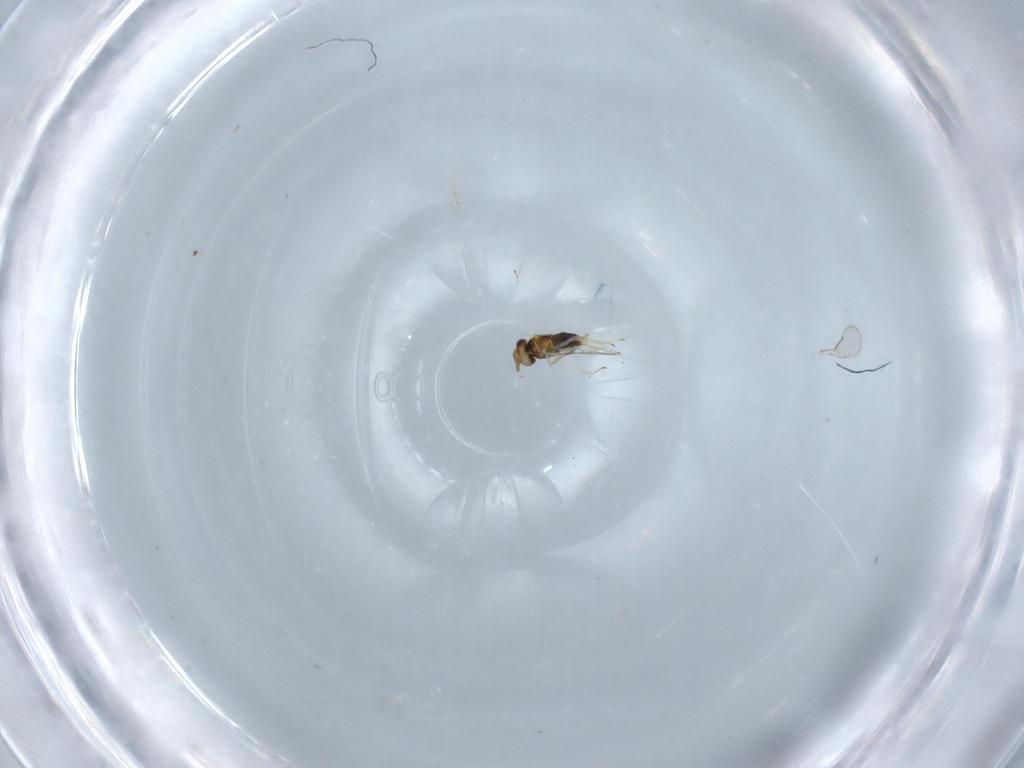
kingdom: Animalia
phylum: Arthropoda
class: Insecta
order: Hymenoptera
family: Aphelinidae
